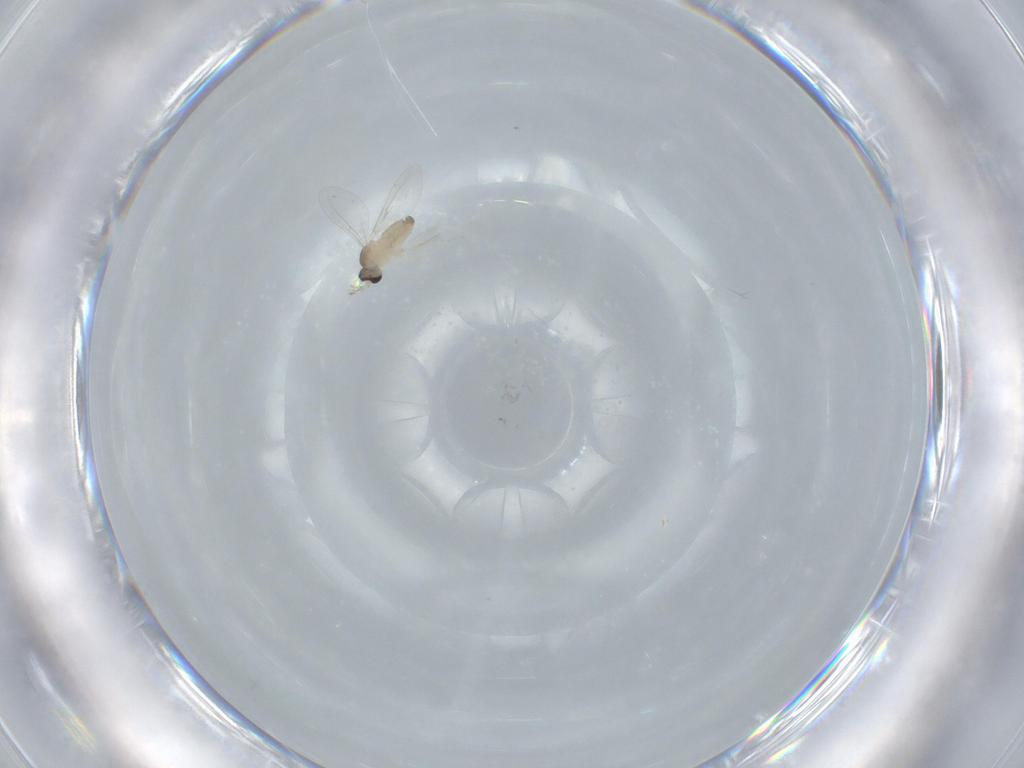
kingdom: Animalia
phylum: Arthropoda
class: Insecta
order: Diptera
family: Cecidomyiidae
